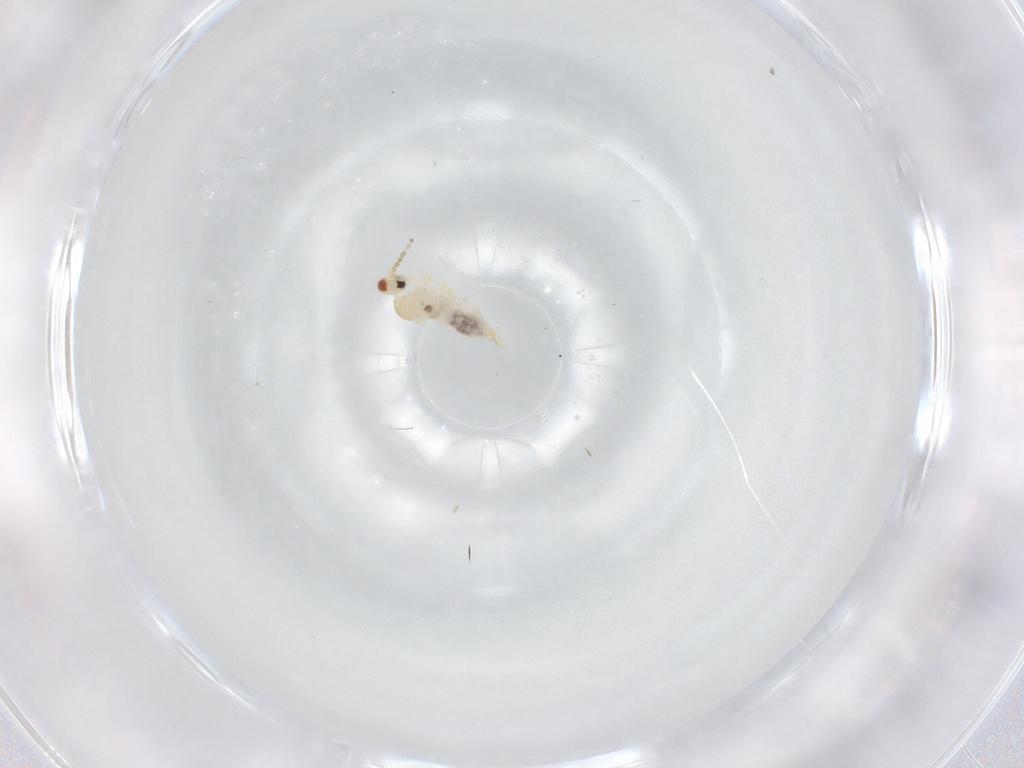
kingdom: Animalia
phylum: Arthropoda
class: Insecta
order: Diptera
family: Cecidomyiidae
